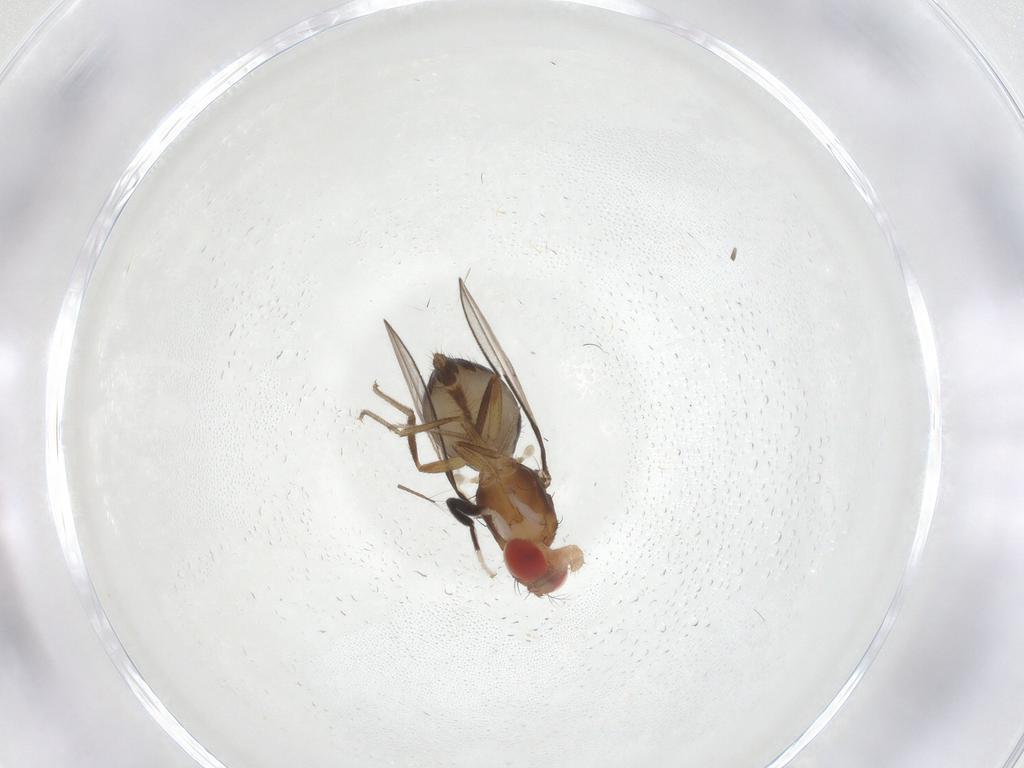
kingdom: Animalia
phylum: Arthropoda
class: Insecta
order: Diptera
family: Drosophilidae
